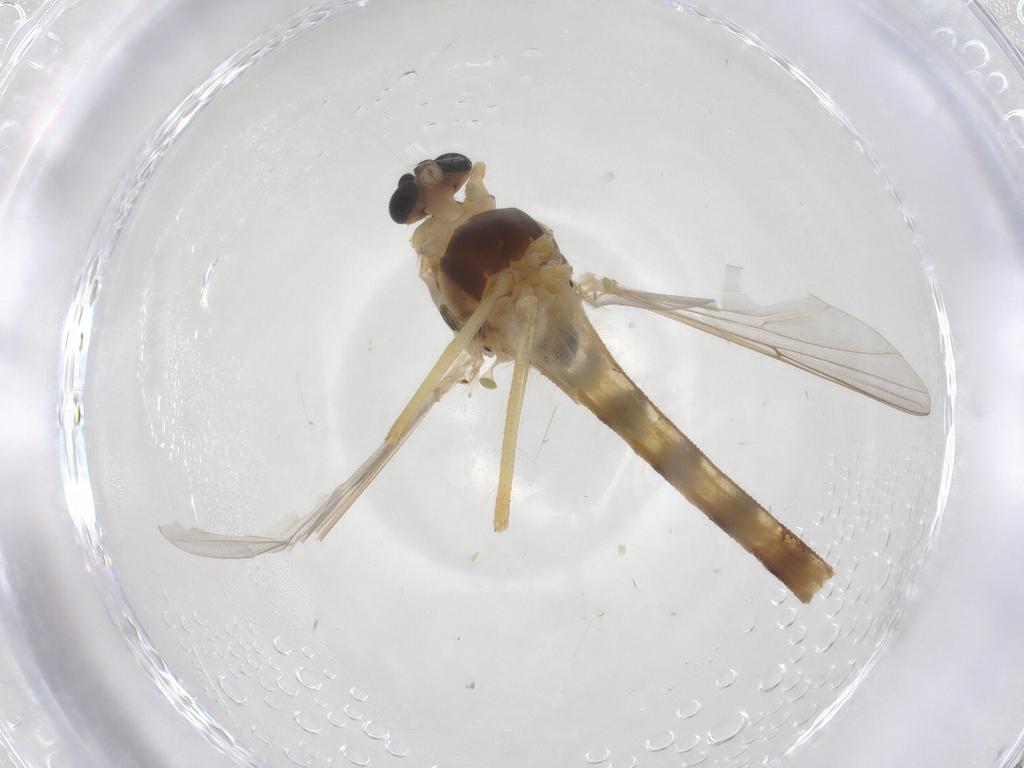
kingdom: Animalia
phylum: Arthropoda
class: Insecta
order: Diptera
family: Chironomidae
